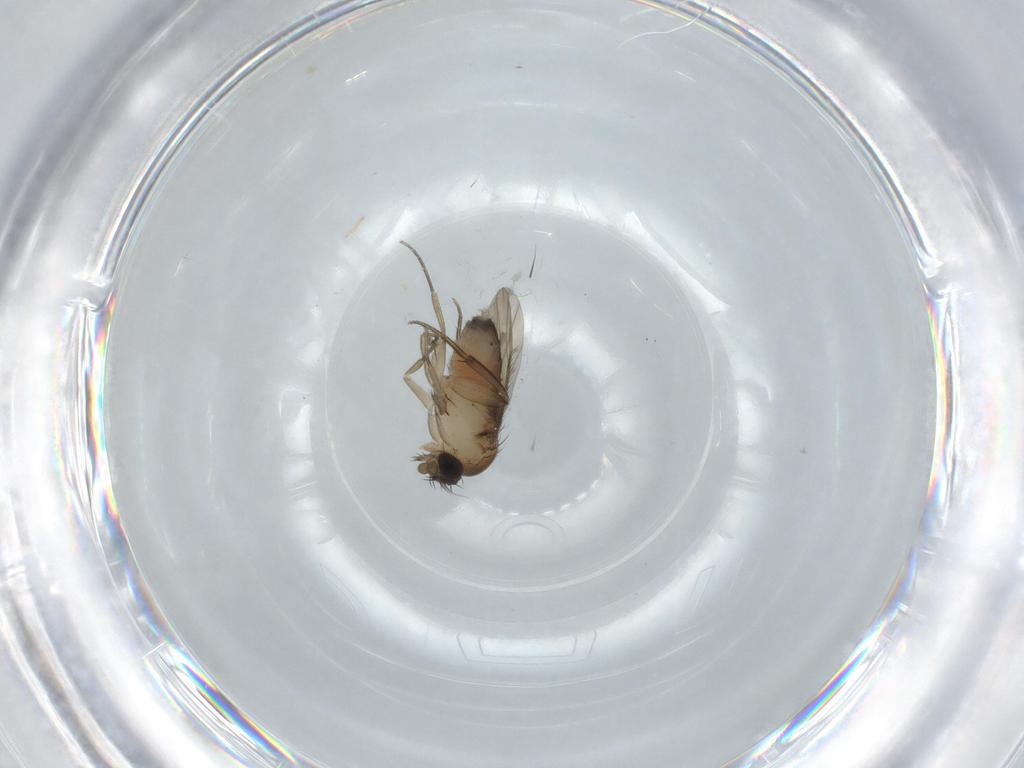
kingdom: Animalia
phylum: Arthropoda
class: Insecta
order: Diptera
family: Phoridae
